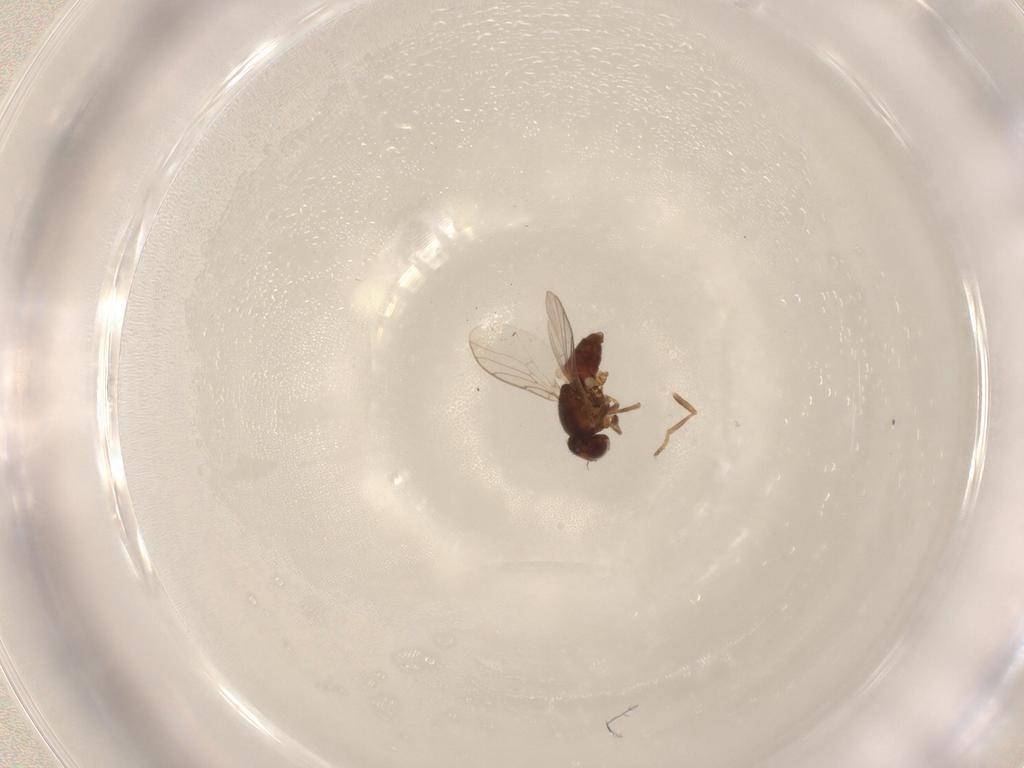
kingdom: Animalia
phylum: Arthropoda
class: Insecta
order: Diptera
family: Chloropidae
